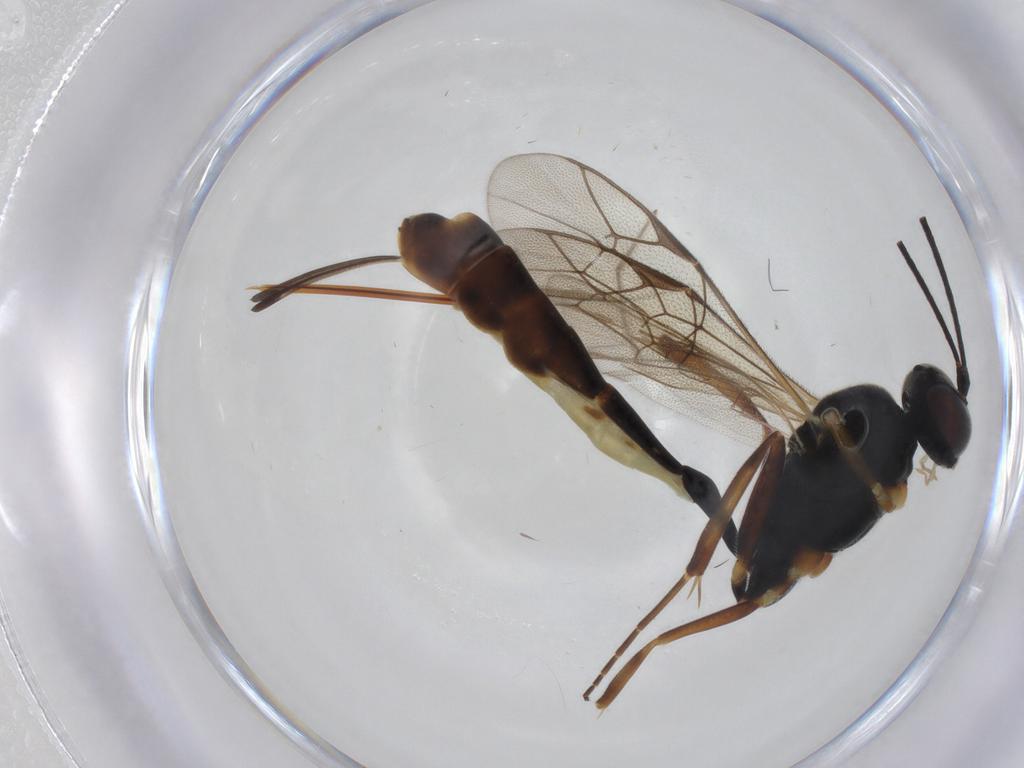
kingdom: Animalia
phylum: Arthropoda
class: Insecta
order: Hymenoptera
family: Ichneumonidae
